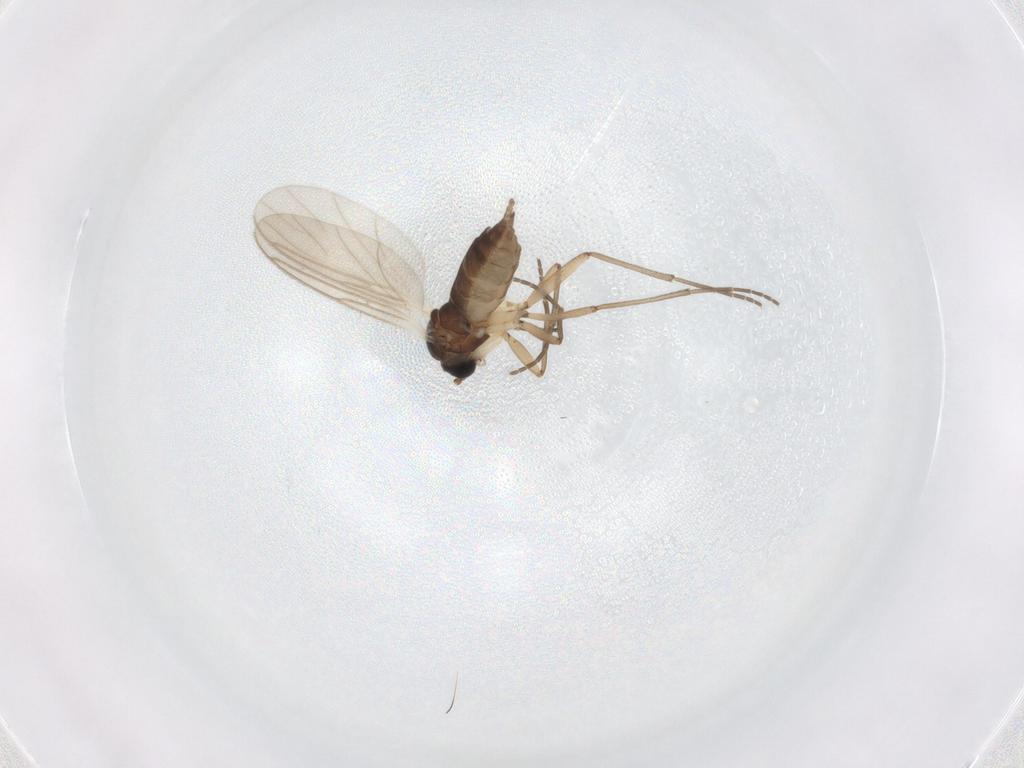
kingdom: Animalia
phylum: Arthropoda
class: Insecta
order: Diptera
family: Sciaridae
